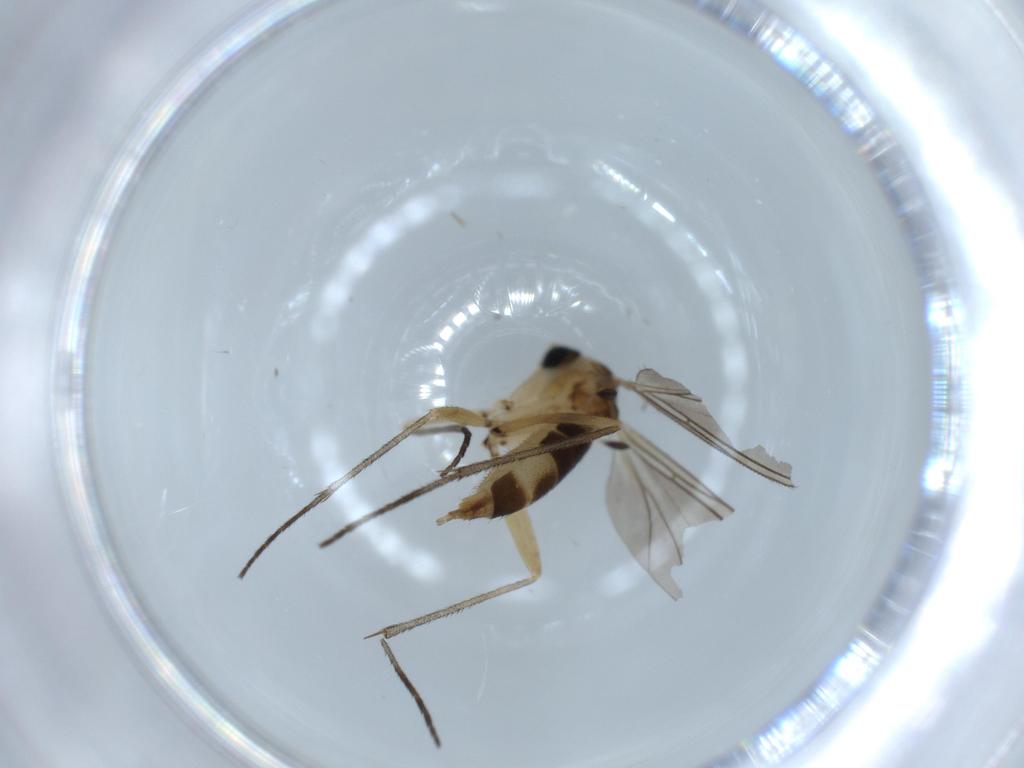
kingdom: Animalia
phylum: Arthropoda
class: Insecta
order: Diptera
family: Sciaridae
